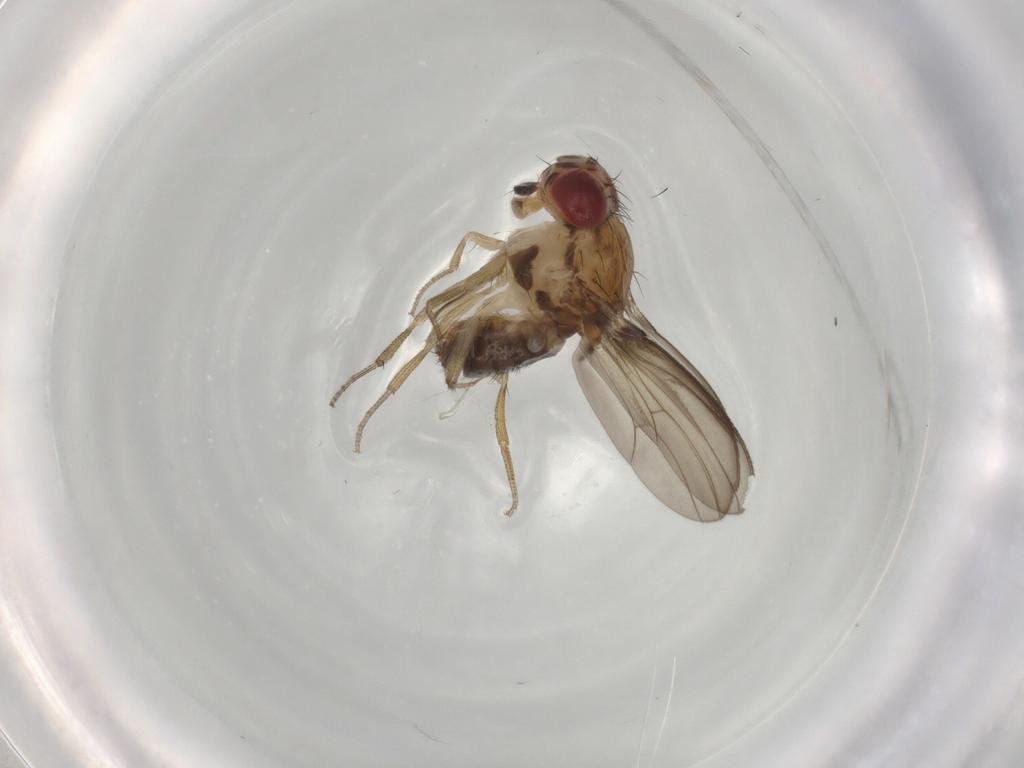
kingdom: Animalia
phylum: Arthropoda
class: Insecta
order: Diptera
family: Drosophilidae
